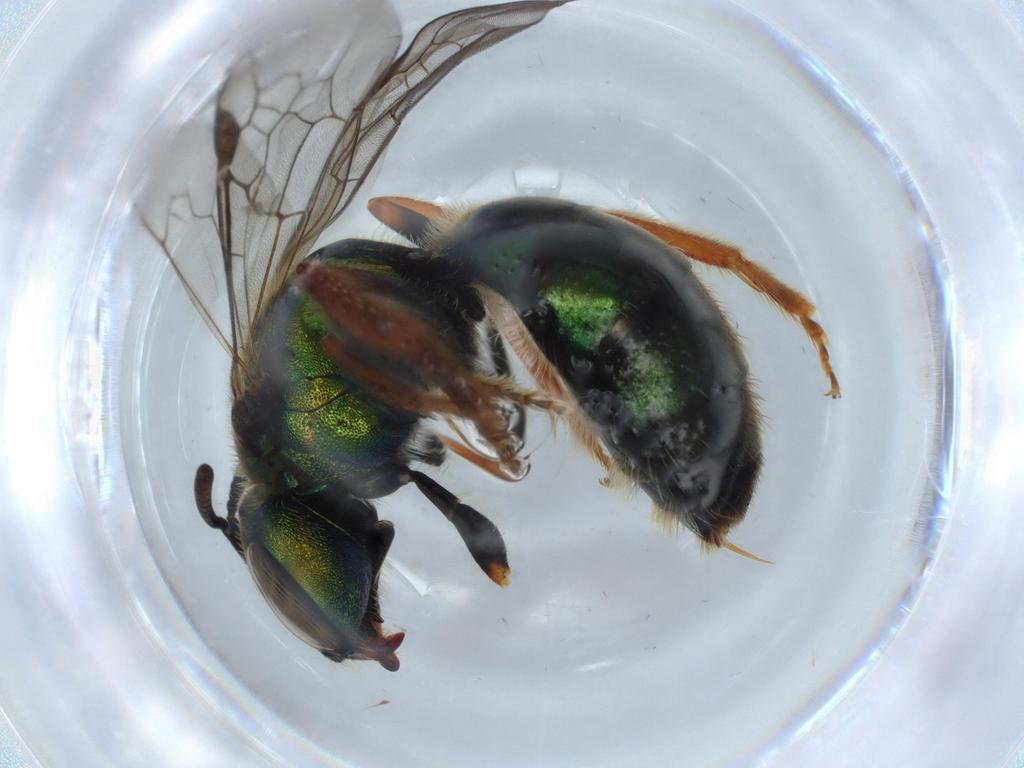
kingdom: Animalia
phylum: Arthropoda
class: Insecta
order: Hymenoptera
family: Halictidae
